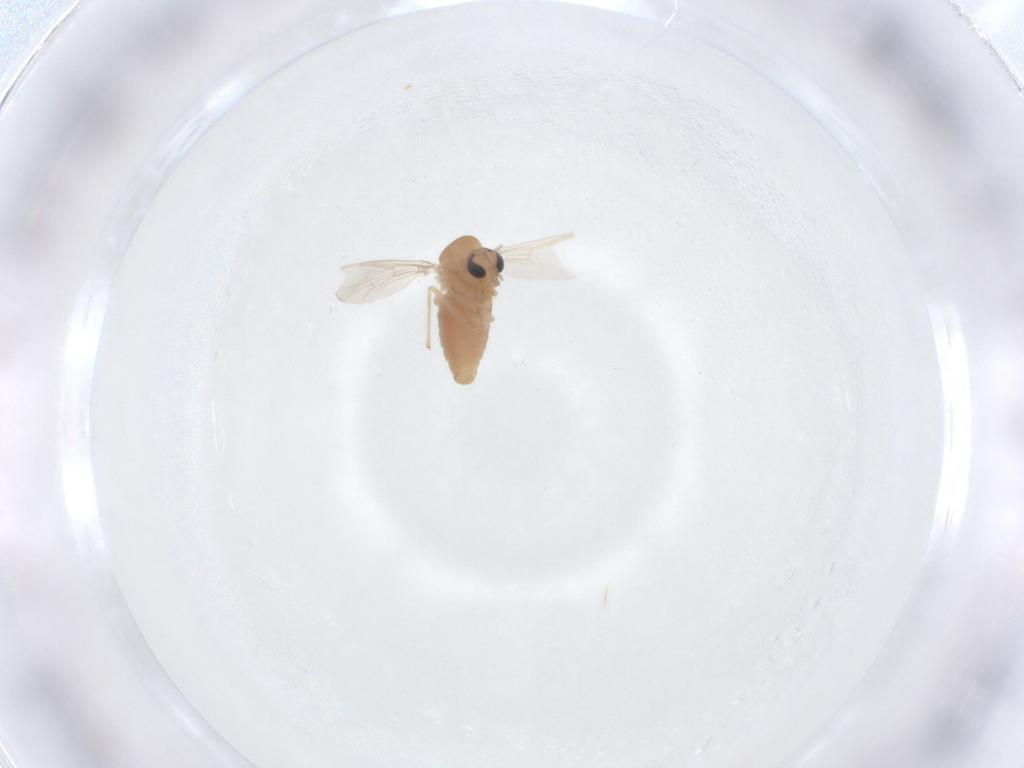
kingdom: Animalia
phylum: Arthropoda
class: Insecta
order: Diptera
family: Chironomidae
